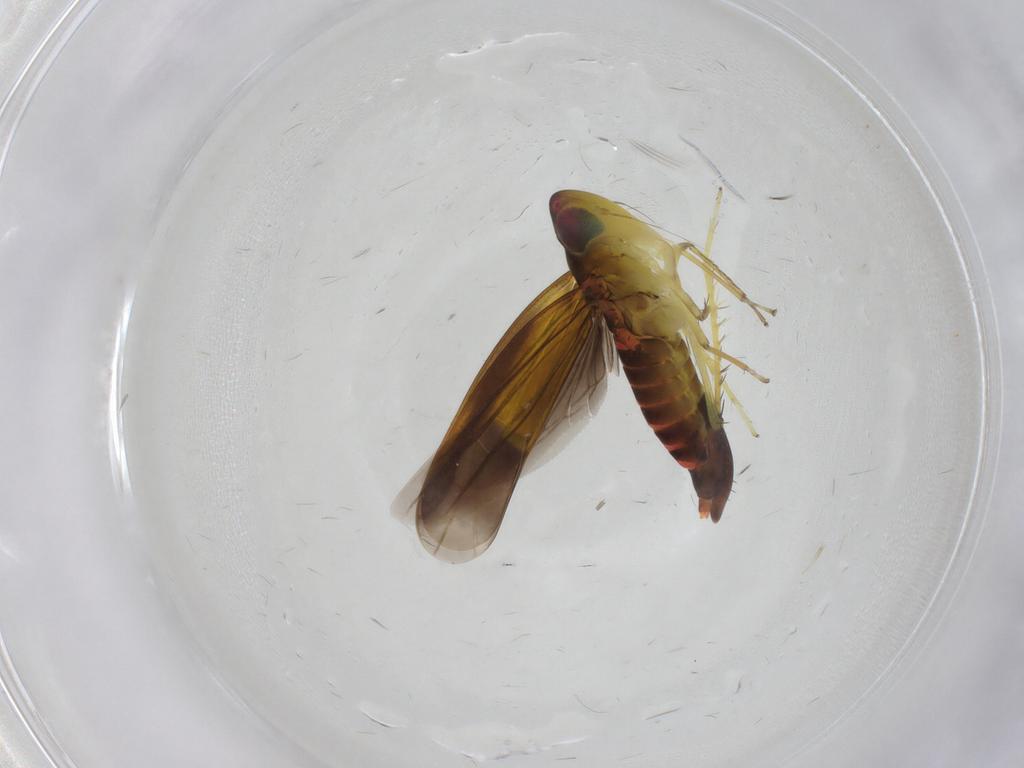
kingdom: Animalia
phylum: Arthropoda
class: Insecta
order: Hemiptera
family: Cicadellidae
